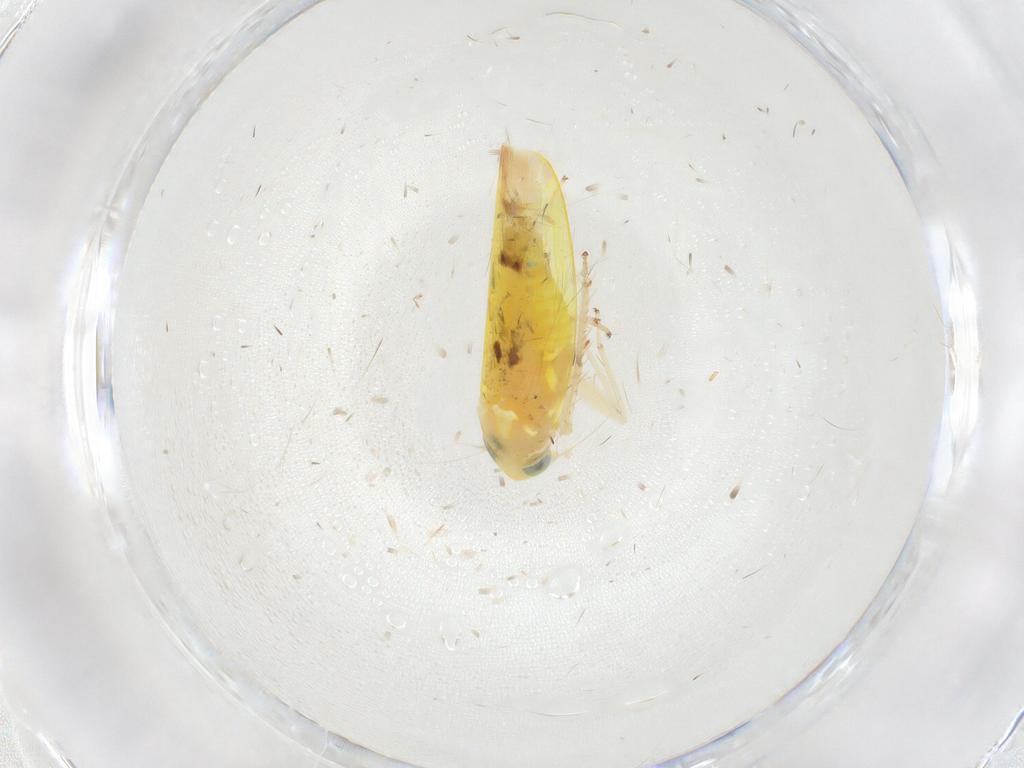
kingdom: Animalia
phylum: Arthropoda
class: Insecta
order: Hemiptera
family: Cicadellidae
